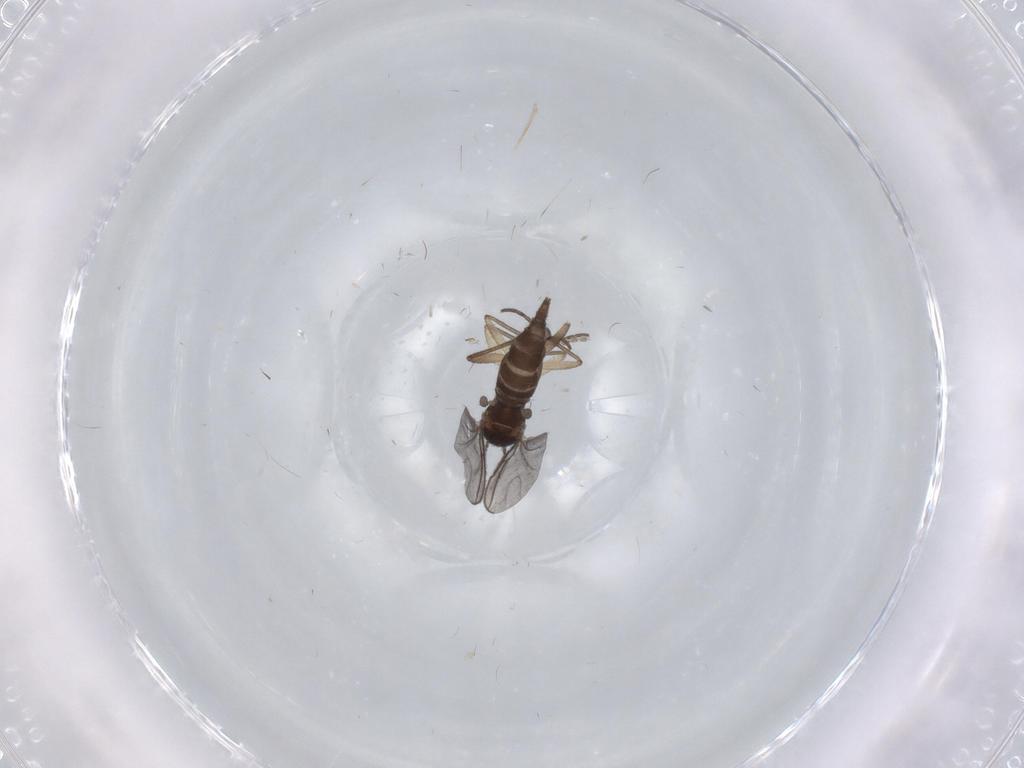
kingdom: Animalia
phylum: Arthropoda
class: Insecta
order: Diptera
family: Sciaridae
